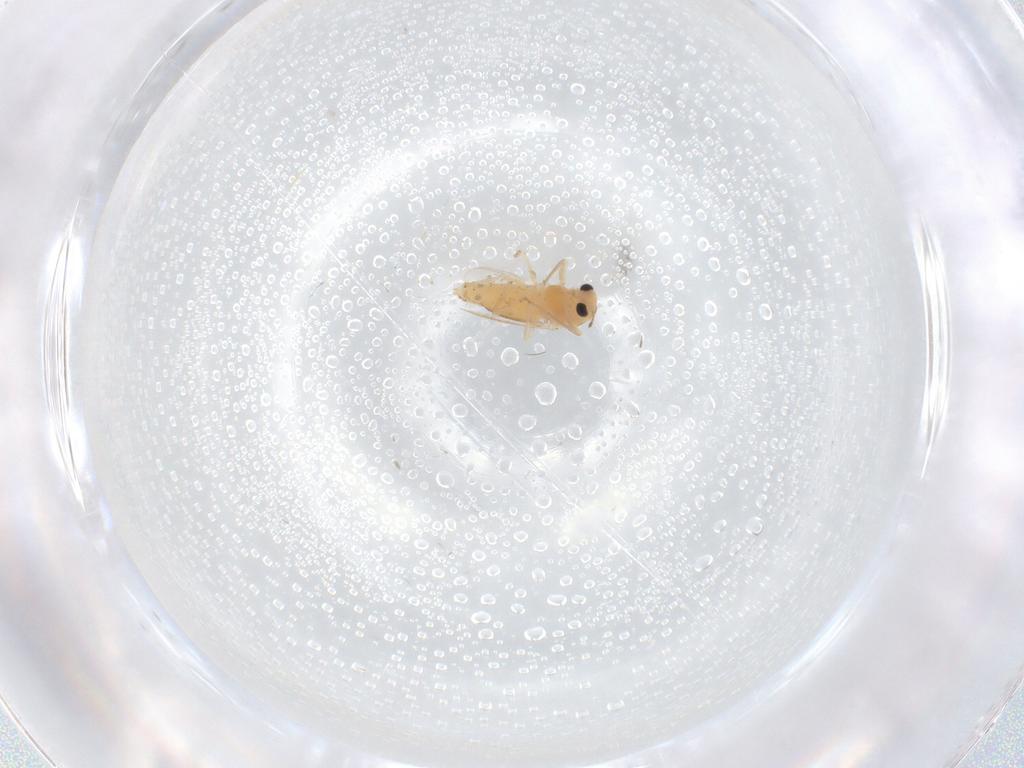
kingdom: Animalia
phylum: Arthropoda
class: Insecta
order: Diptera
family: Chironomidae
